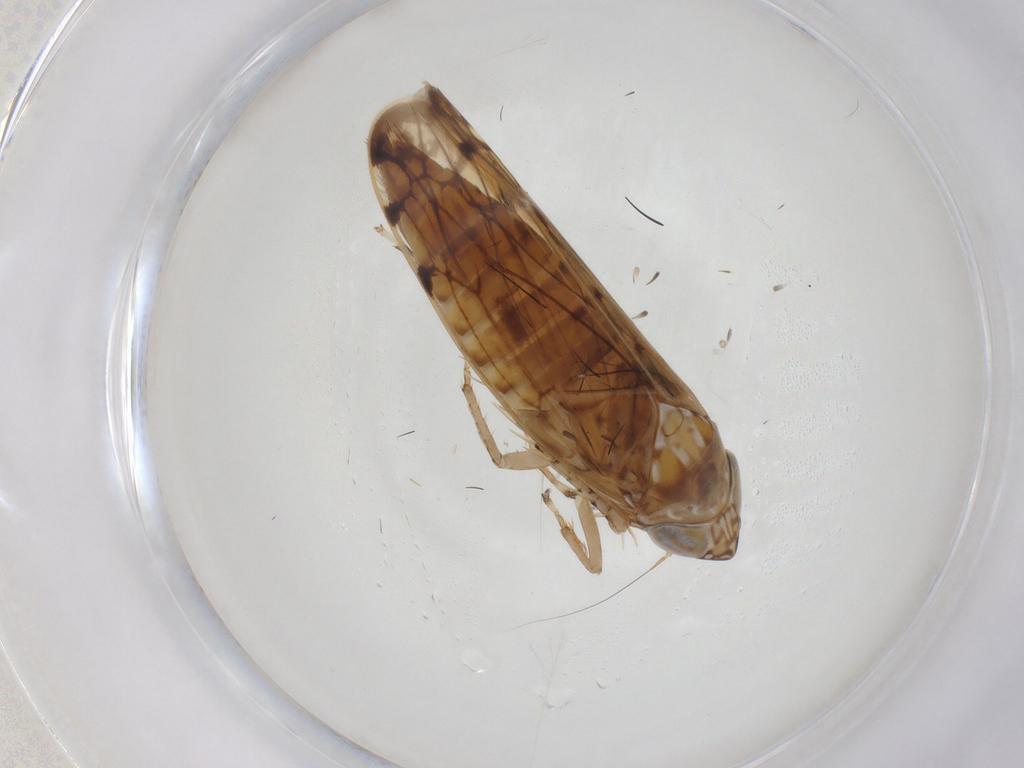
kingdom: Animalia
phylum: Arthropoda
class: Insecta
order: Hemiptera
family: Cicadellidae
